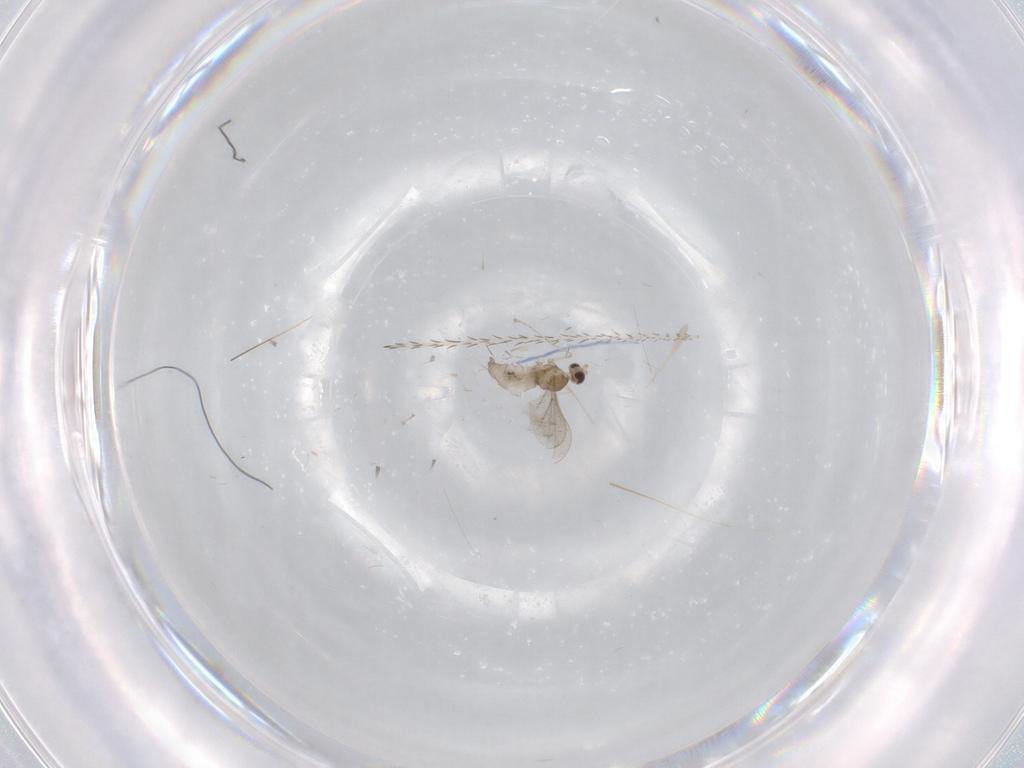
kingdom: Animalia
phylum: Arthropoda
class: Insecta
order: Diptera
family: Cecidomyiidae
